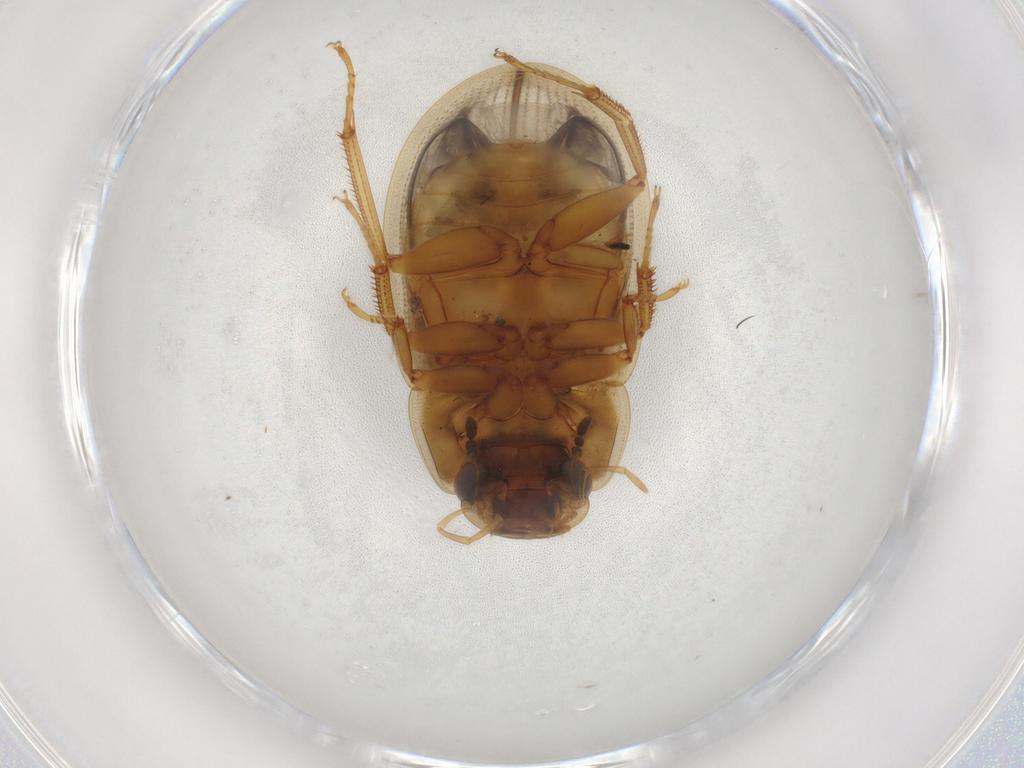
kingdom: Animalia
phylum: Arthropoda
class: Insecta
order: Coleoptera
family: Carabidae
